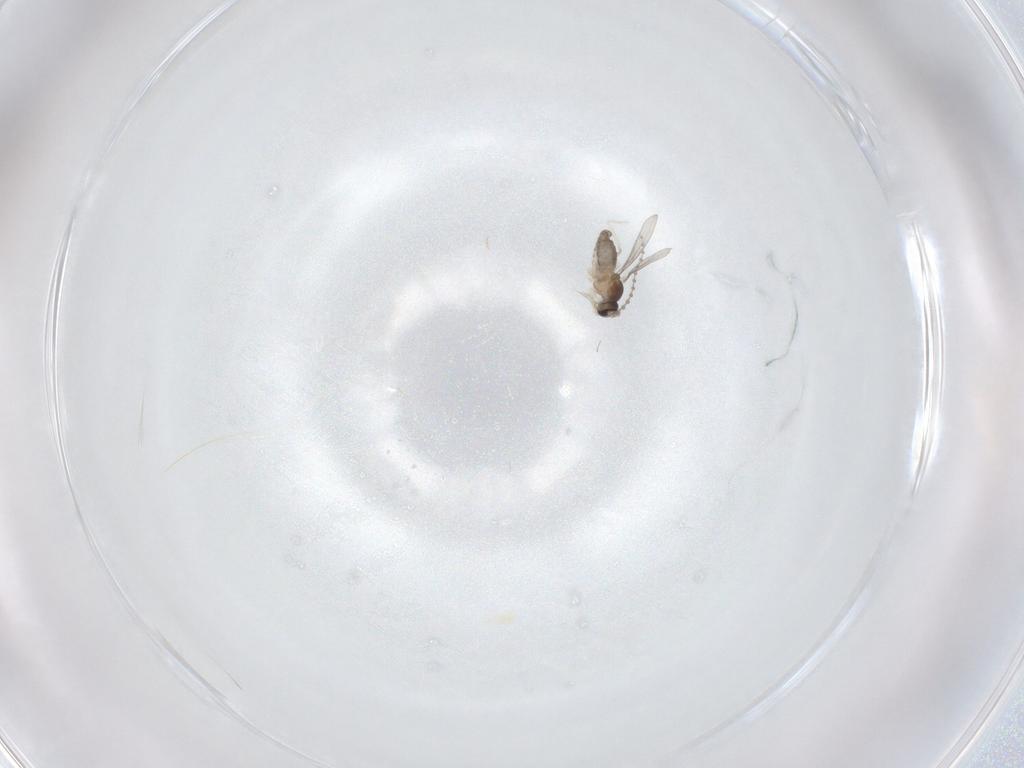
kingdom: Animalia
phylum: Arthropoda
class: Insecta
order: Diptera
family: Cecidomyiidae
